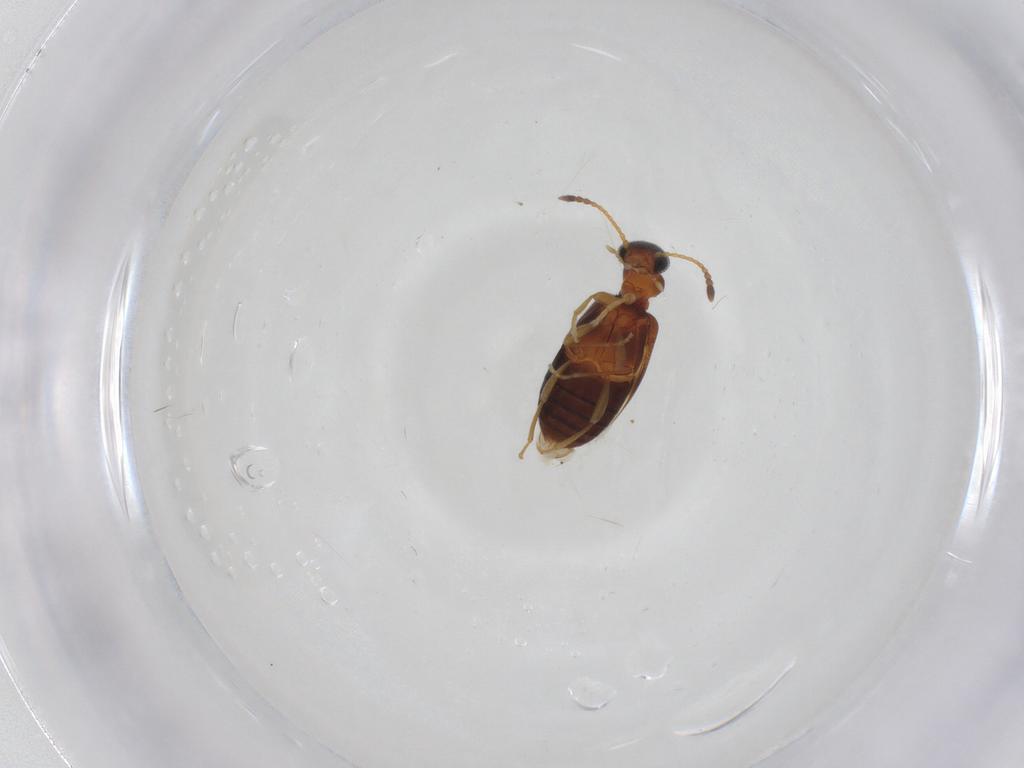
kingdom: Animalia
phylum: Arthropoda
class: Insecta
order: Coleoptera
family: Anthicidae
